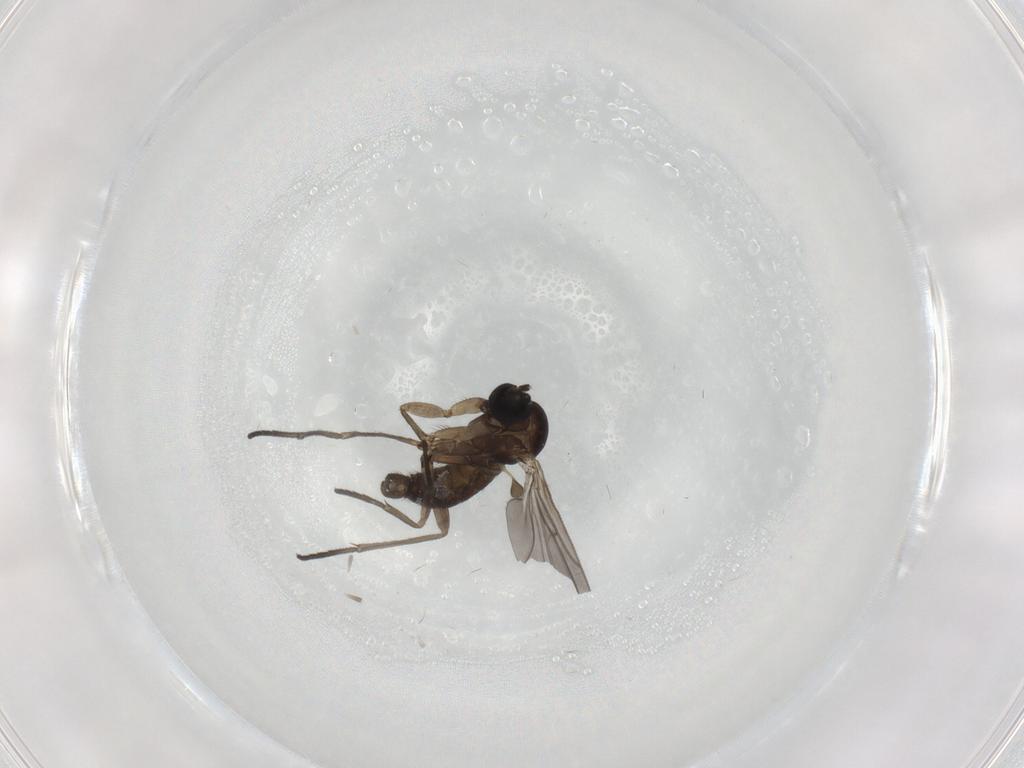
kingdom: Animalia
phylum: Arthropoda
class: Insecta
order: Diptera
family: Sciaridae
